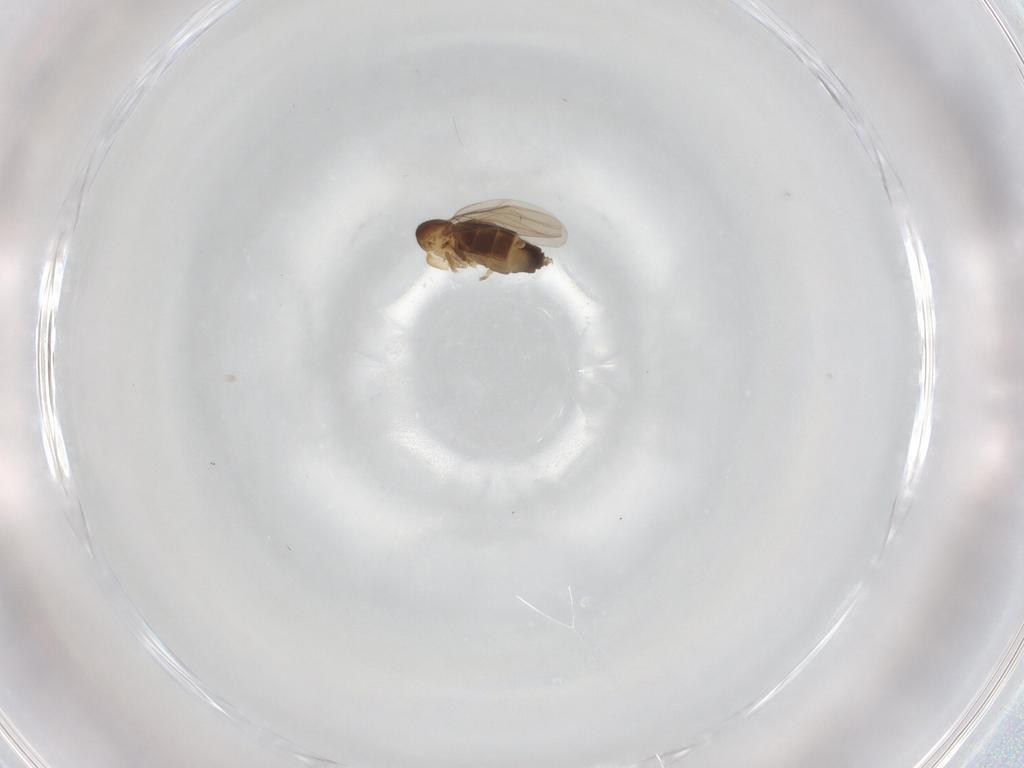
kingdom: Animalia
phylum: Arthropoda
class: Insecta
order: Diptera
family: Phoridae
